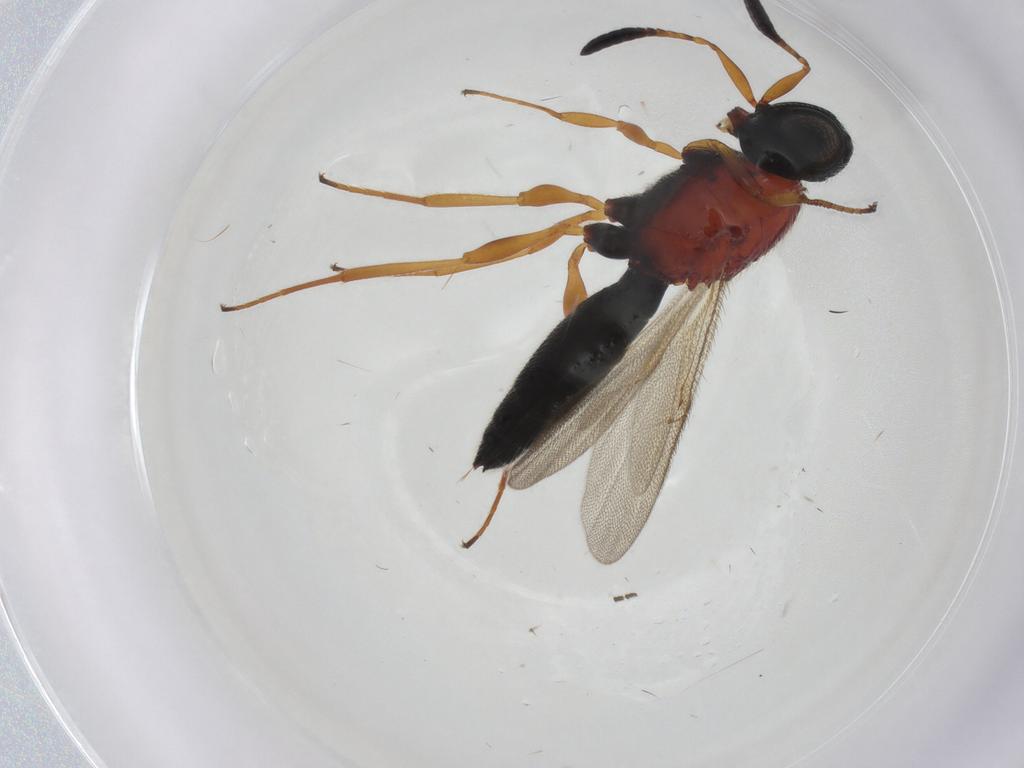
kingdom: Animalia
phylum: Arthropoda
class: Insecta
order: Hymenoptera
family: Scelionidae
